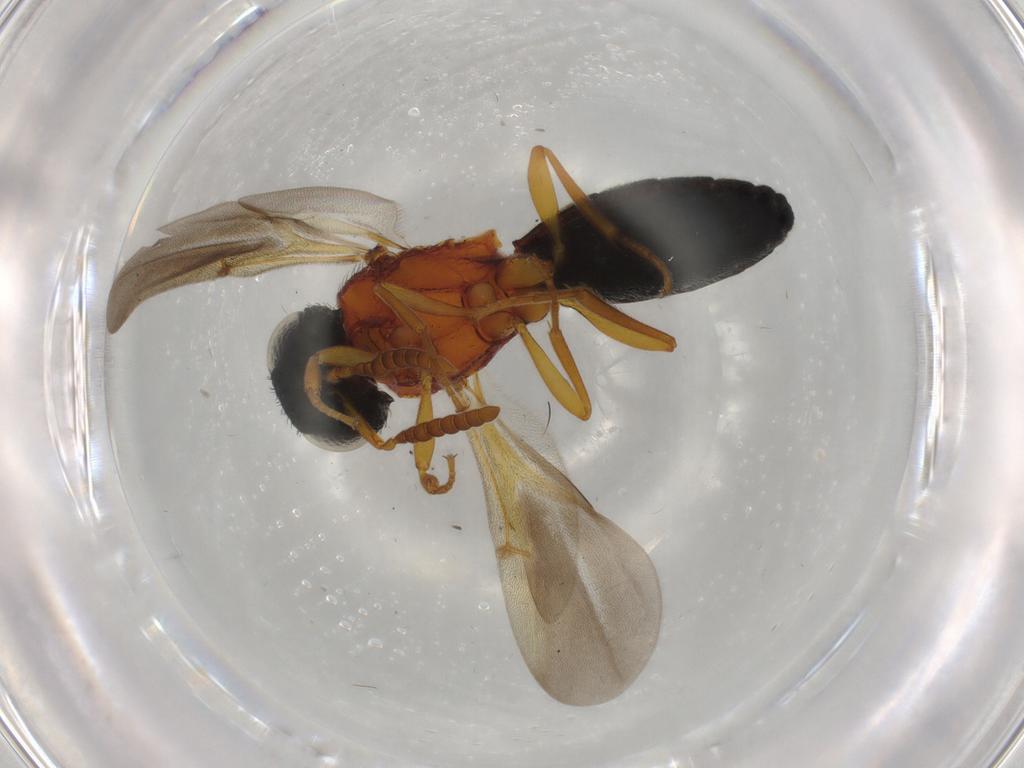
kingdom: Animalia
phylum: Arthropoda
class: Insecta
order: Hymenoptera
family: Scelionidae
